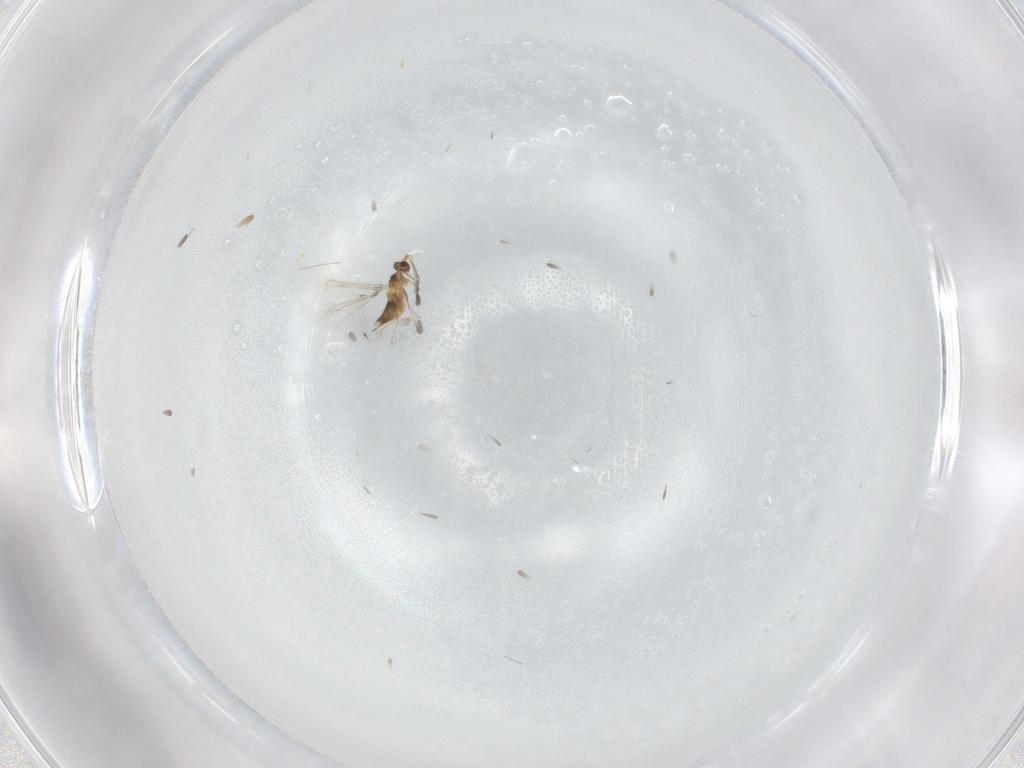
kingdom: Animalia
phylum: Arthropoda
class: Insecta
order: Hymenoptera
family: Mymaridae
